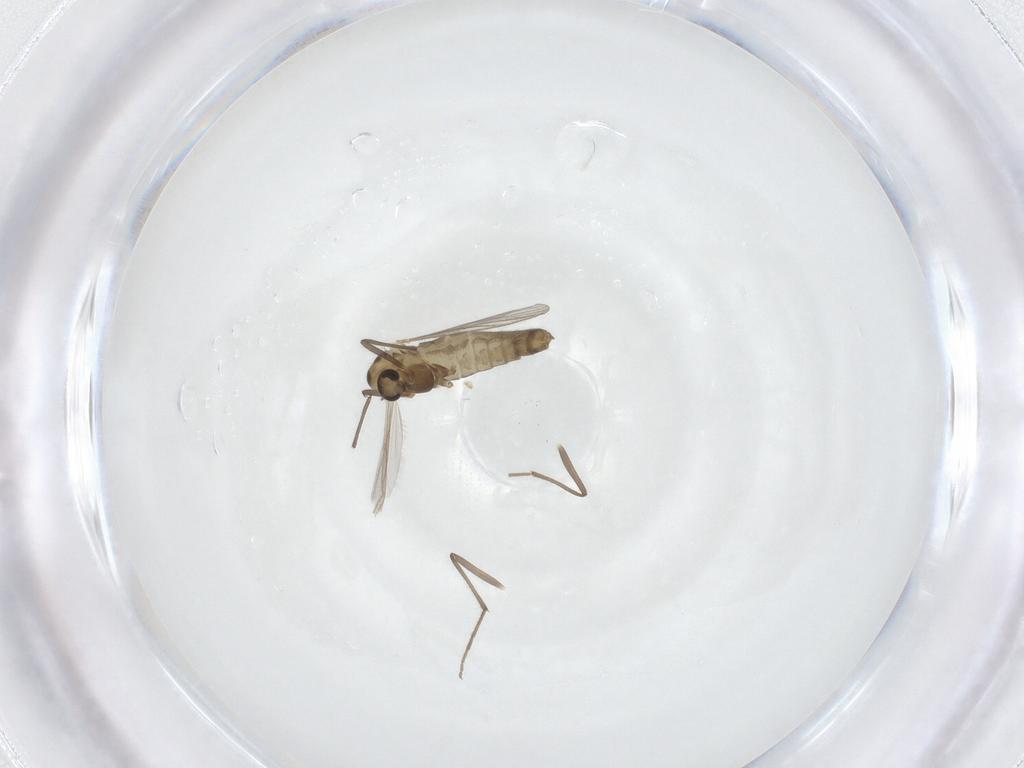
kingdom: Animalia
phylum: Arthropoda
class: Insecta
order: Diptera
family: Chironomidae
